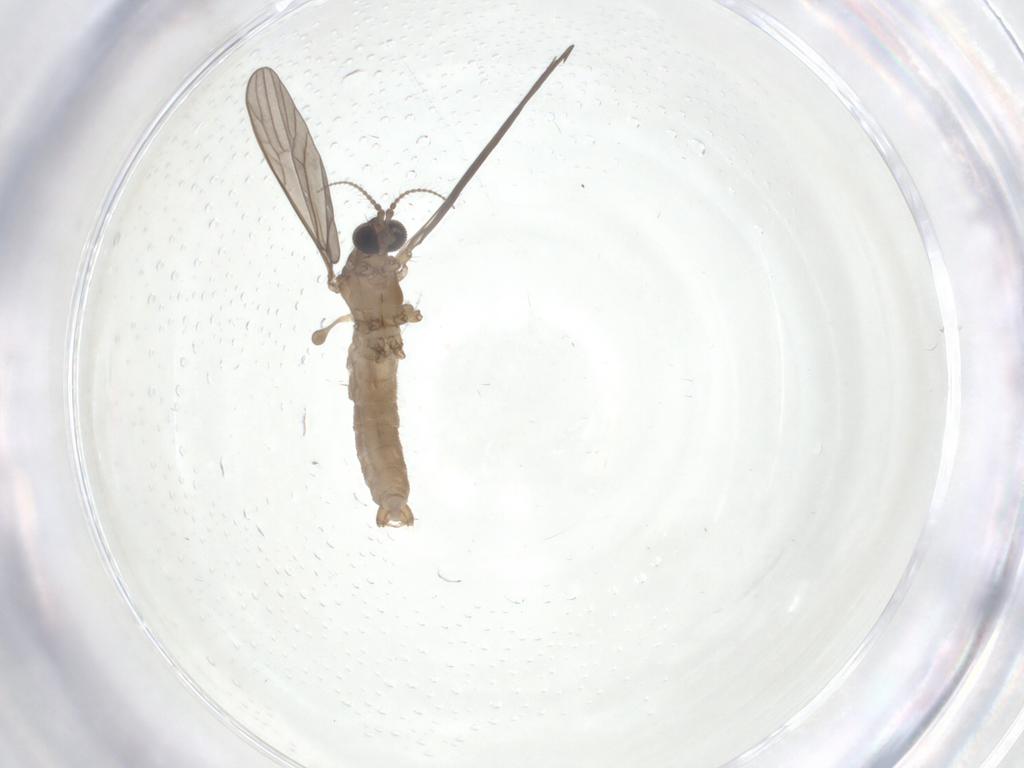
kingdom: Animalia
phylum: Arthropoda
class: Insecta
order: Diptera
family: Limoniidae
